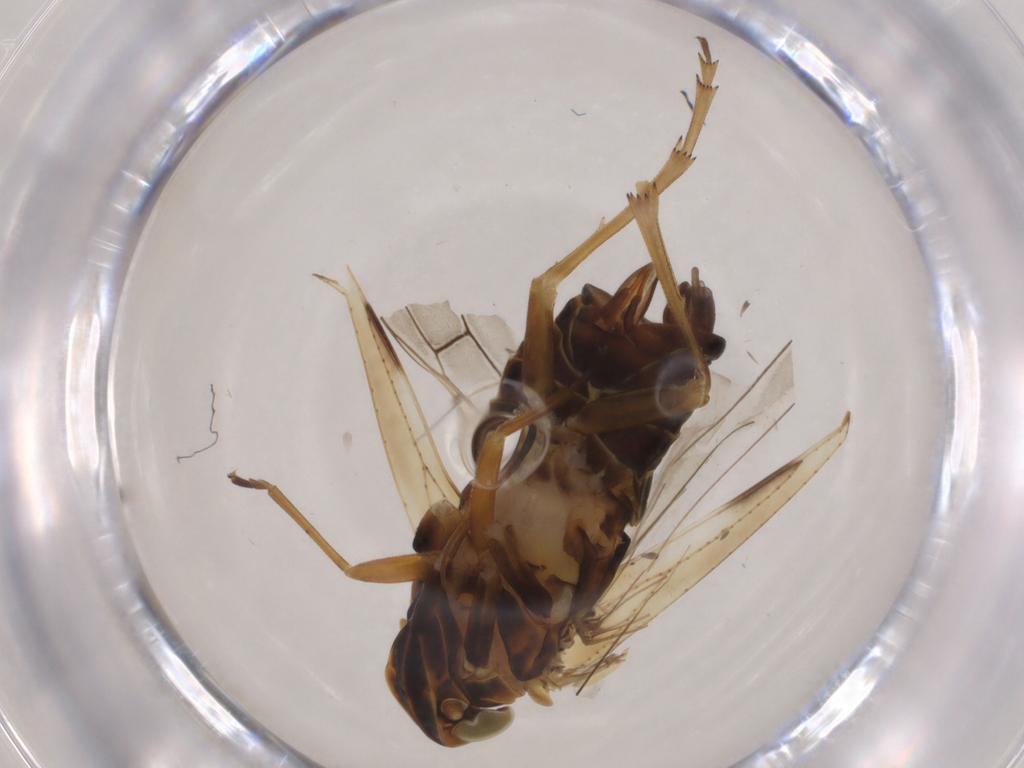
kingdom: Animalia
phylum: Arthropoda
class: Insecta
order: Hemiptera
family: Cixiidae
